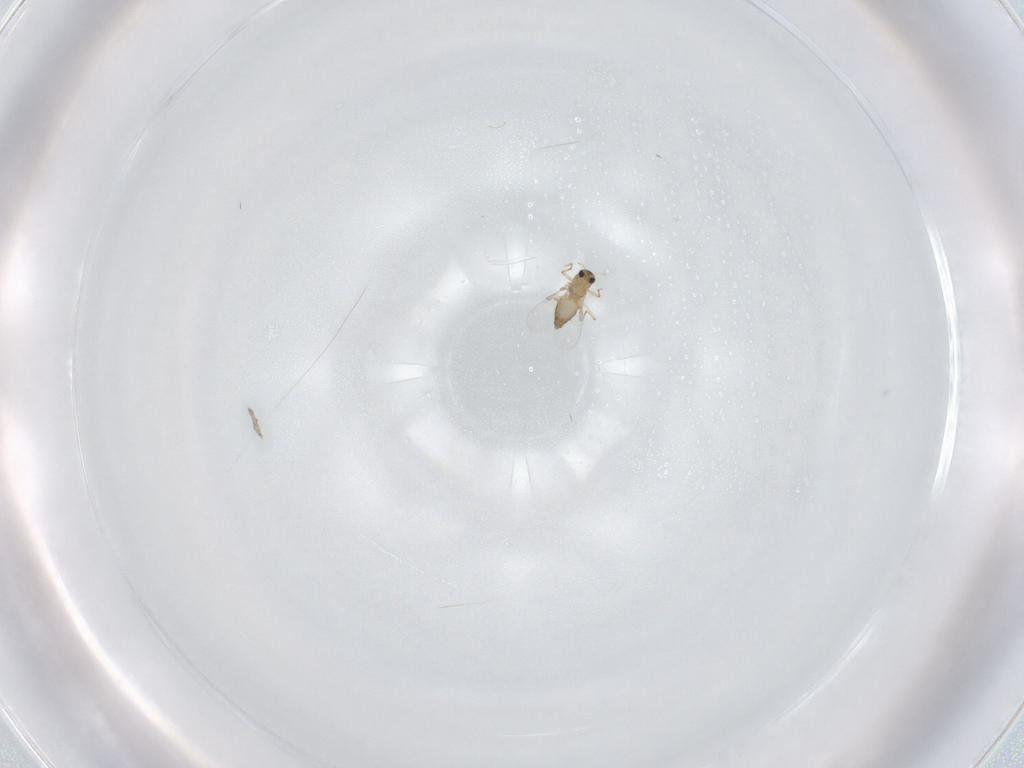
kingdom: Animalia
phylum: Arthropoda
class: Insecta
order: Diptera
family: Chironomidae
